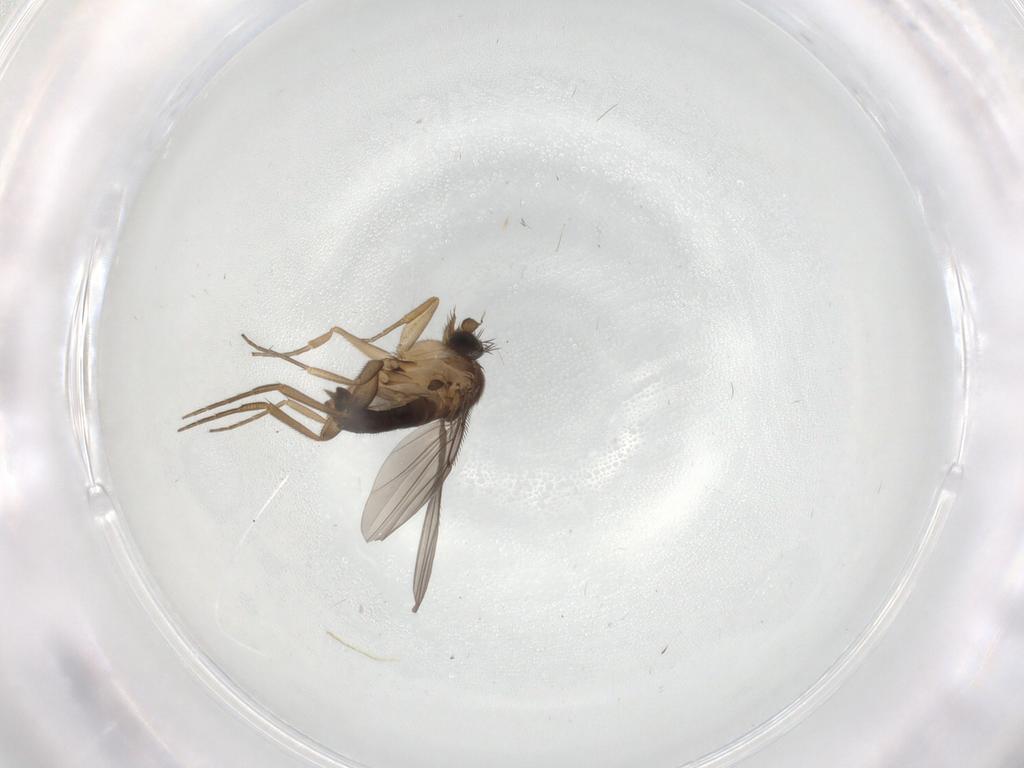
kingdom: Animalia
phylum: Arthropoda
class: Insecta
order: Diptera
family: Phoridae
